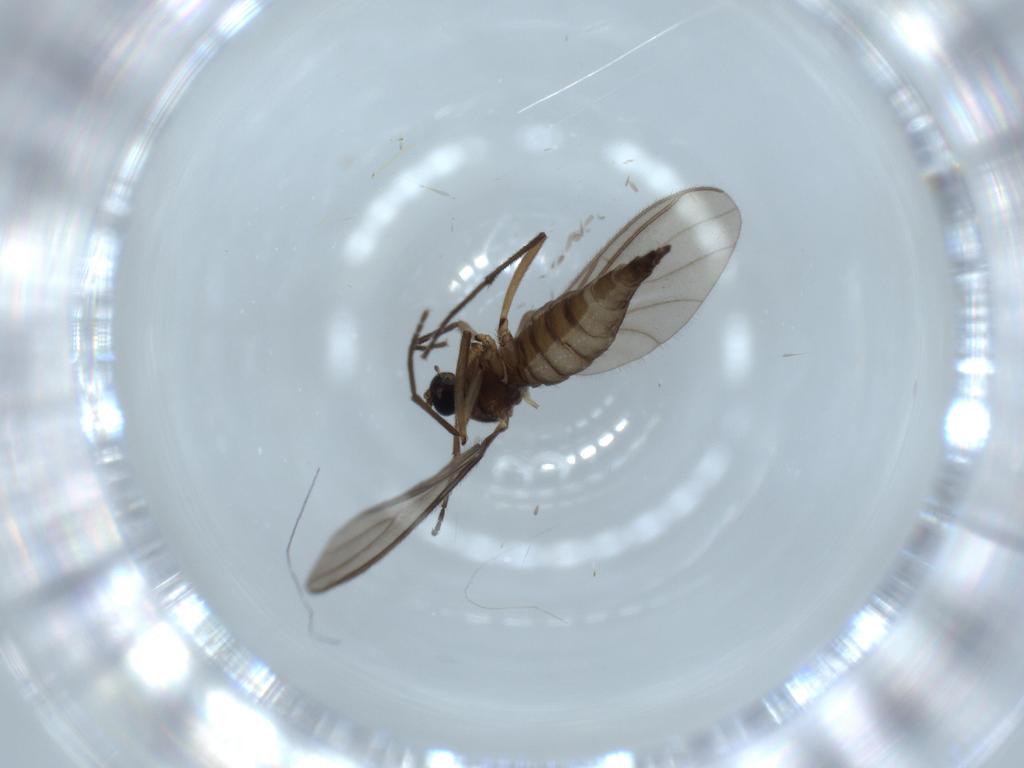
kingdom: Animalia
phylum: Arthropoda
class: Insecta
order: Diptera
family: Sciaridae
